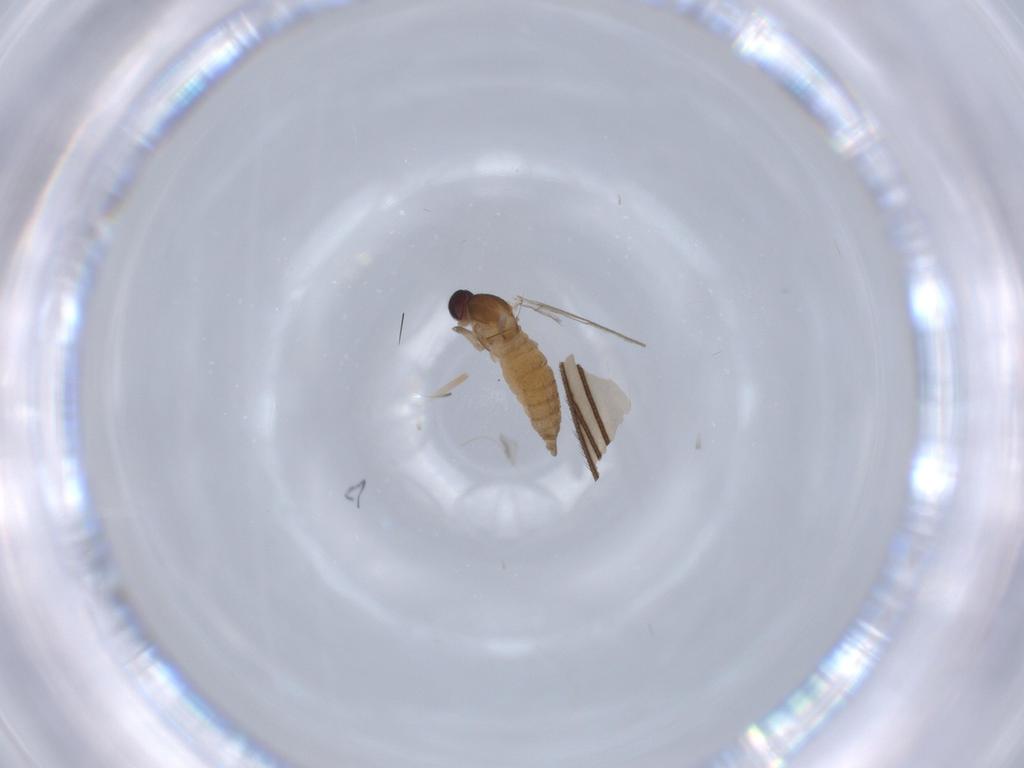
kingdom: Animalia
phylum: Arthropoda
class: Insecta
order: Diptera
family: Cecidomyiidae
